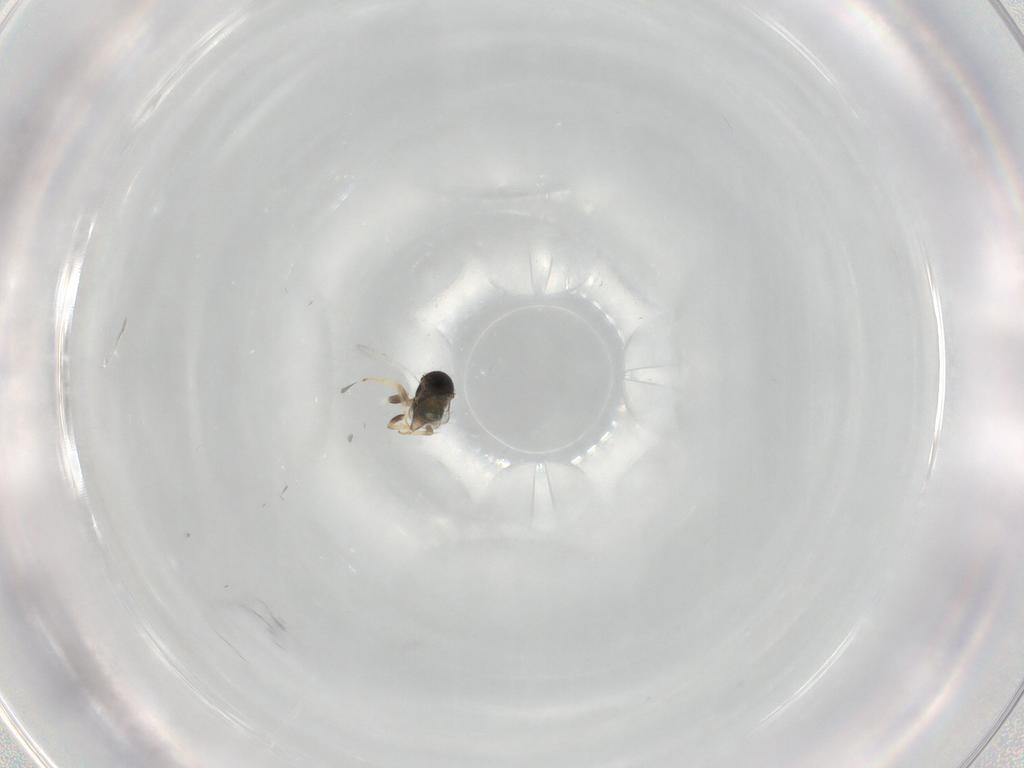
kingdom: Animalia
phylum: Arthropoda
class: Insecta
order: Hymenoptera
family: Aphelinidae
